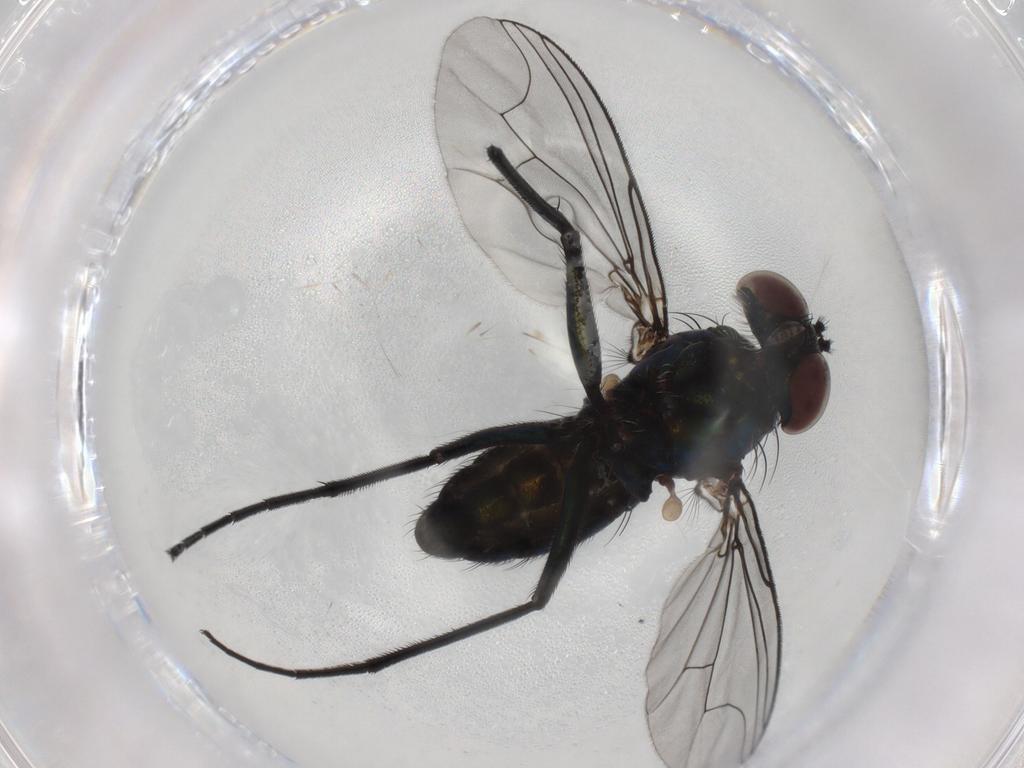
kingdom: Animalia
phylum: Arthropoda
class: Insecta
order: Diptera
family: Dolichopodidae
